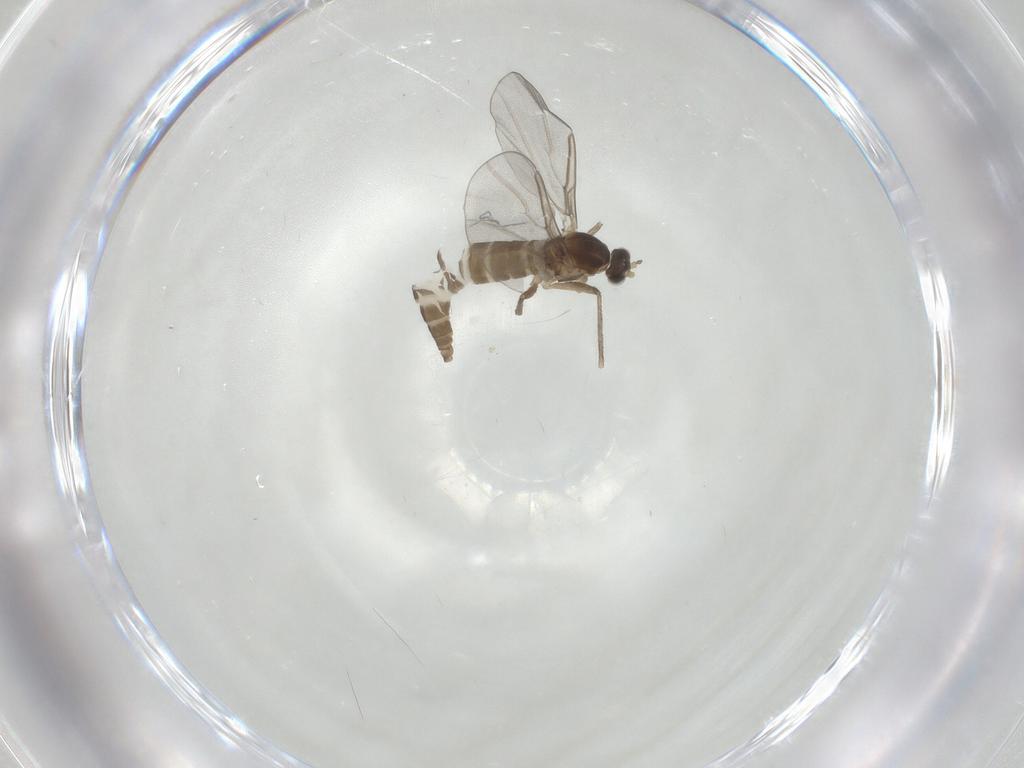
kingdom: Animalia
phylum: Arthropoda
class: Insecta
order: Diptera
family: Cecidomyiidae
